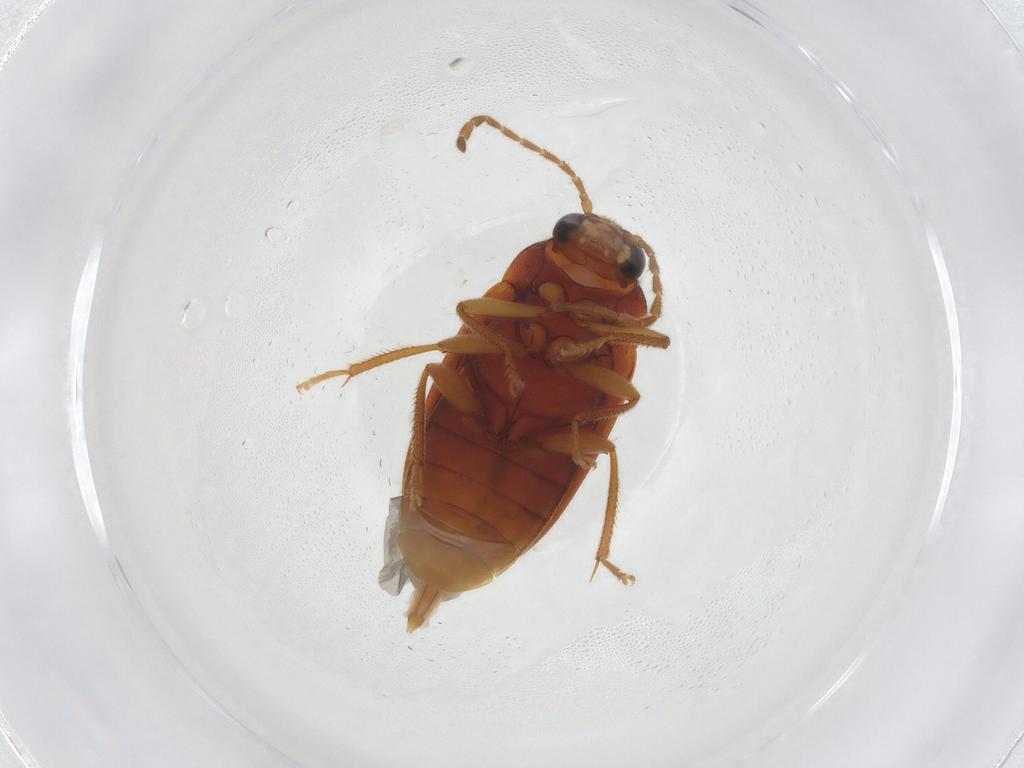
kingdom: Animalia
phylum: Arthropoda
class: Insecta
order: Coleoptera
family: Ptilodactylidae
